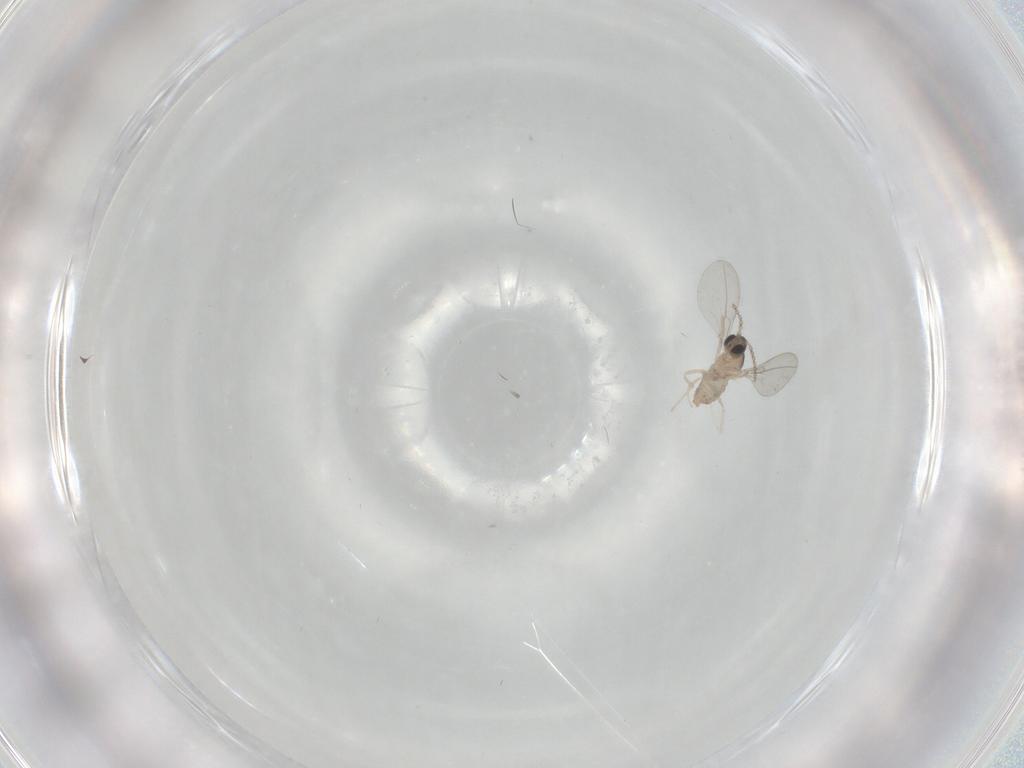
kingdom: Animalia
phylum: Arthropoda
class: Insecta
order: Diptera
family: Cecidomyiidae
